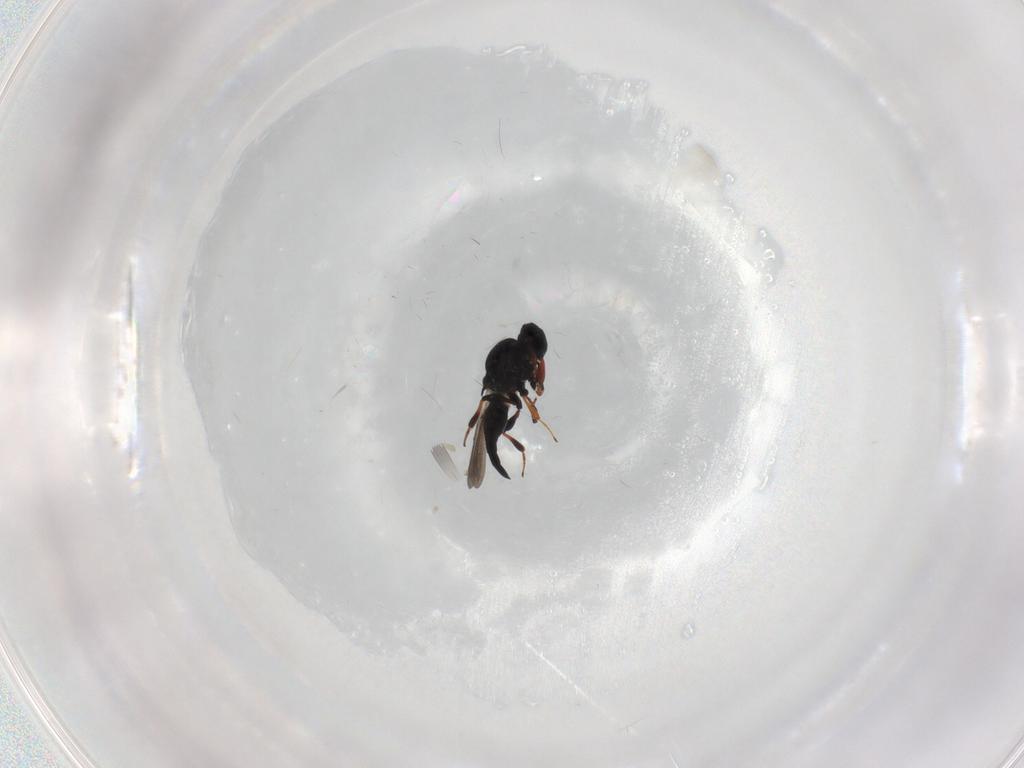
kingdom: Animalia
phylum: Arthropoda
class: Insecta
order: Hymenoptera
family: Platygastridae
